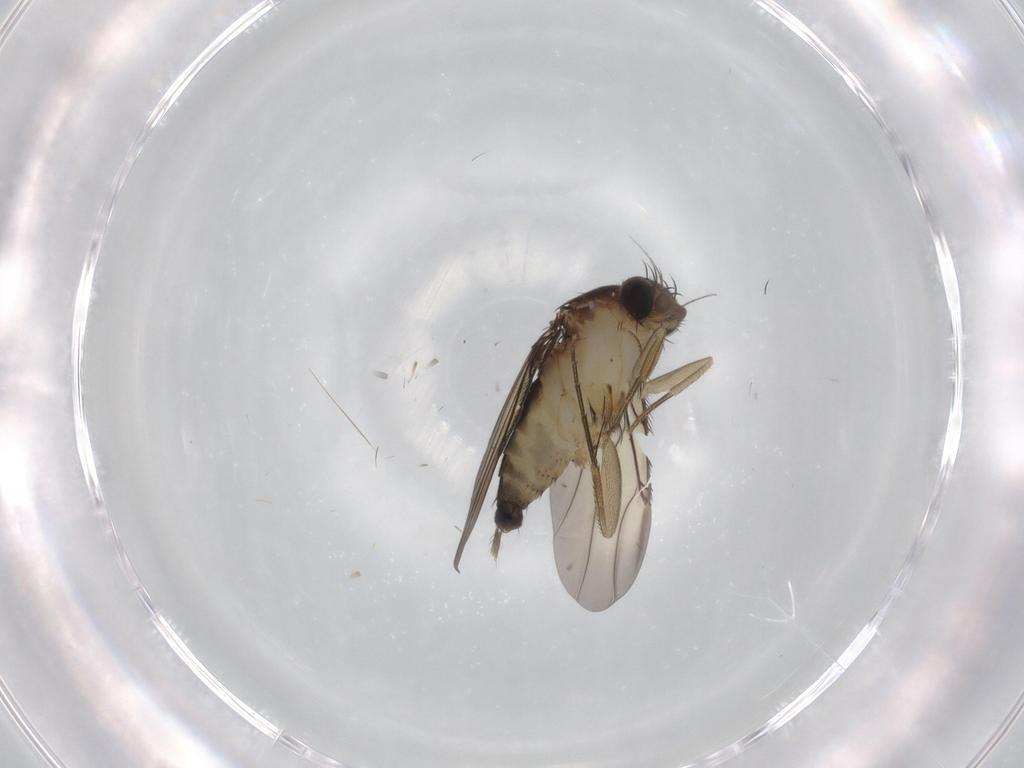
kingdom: Animalia
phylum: Arthropoda
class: Insecta
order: Diptera
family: Phoridae
